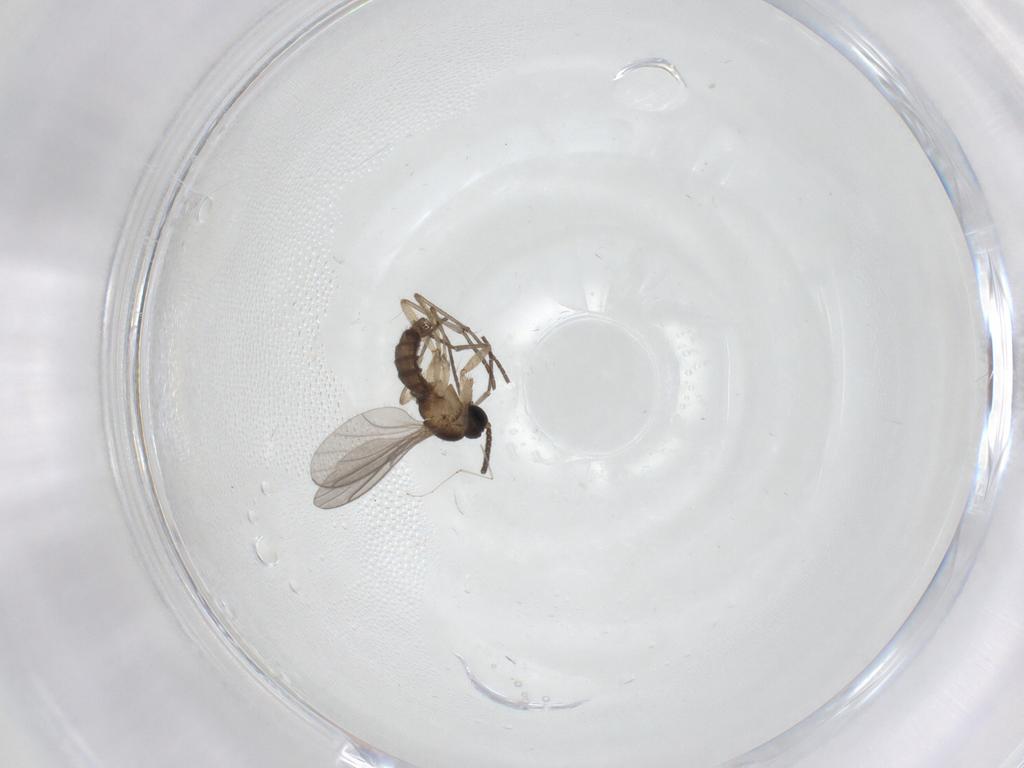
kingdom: Animalia
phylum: Arthropoda
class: Insecta
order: Diptera
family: Sciaridae
